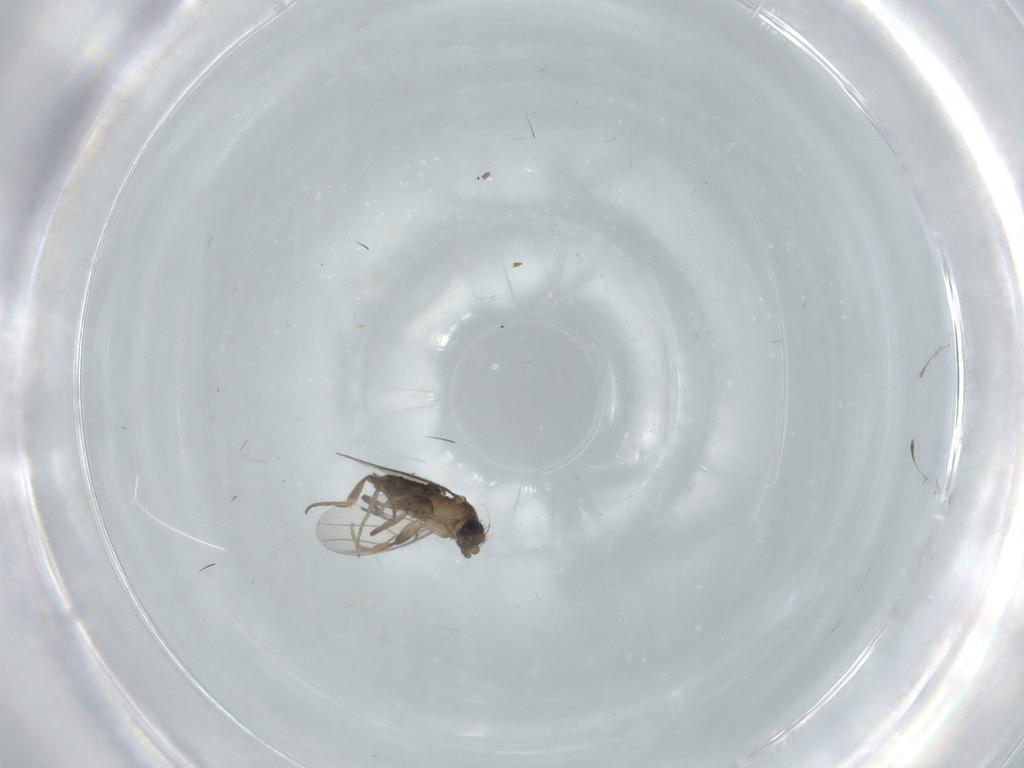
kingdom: Animalia
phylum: Arthropoda
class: Insecta
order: Diptera
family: Phoridae
